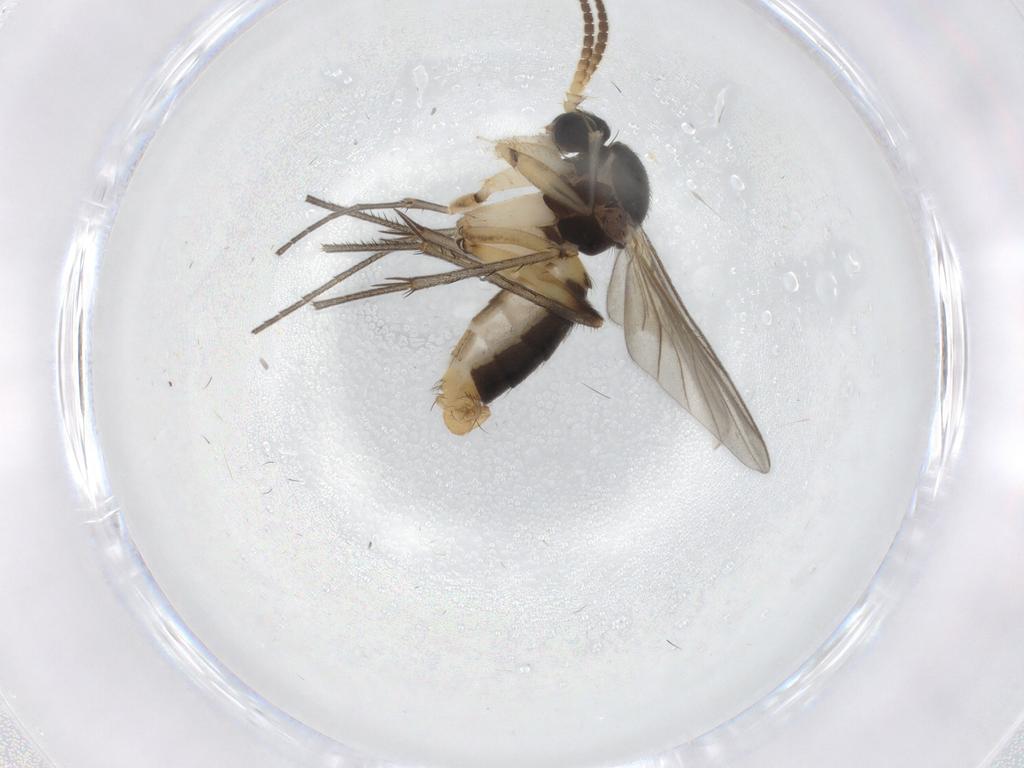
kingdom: Animalia
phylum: Arthropoda
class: Insecta
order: Diptera
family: Mycetophilidae
